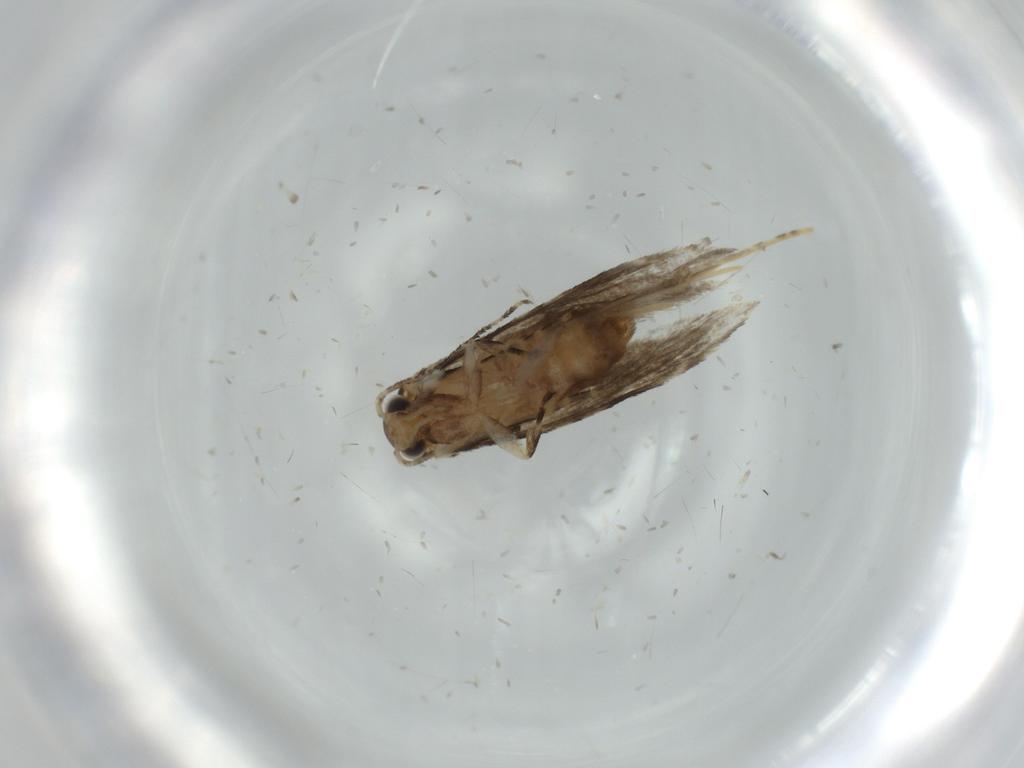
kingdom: Animalia
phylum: Arthropoda
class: Insecta
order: Lepidoptera
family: Tineidae
